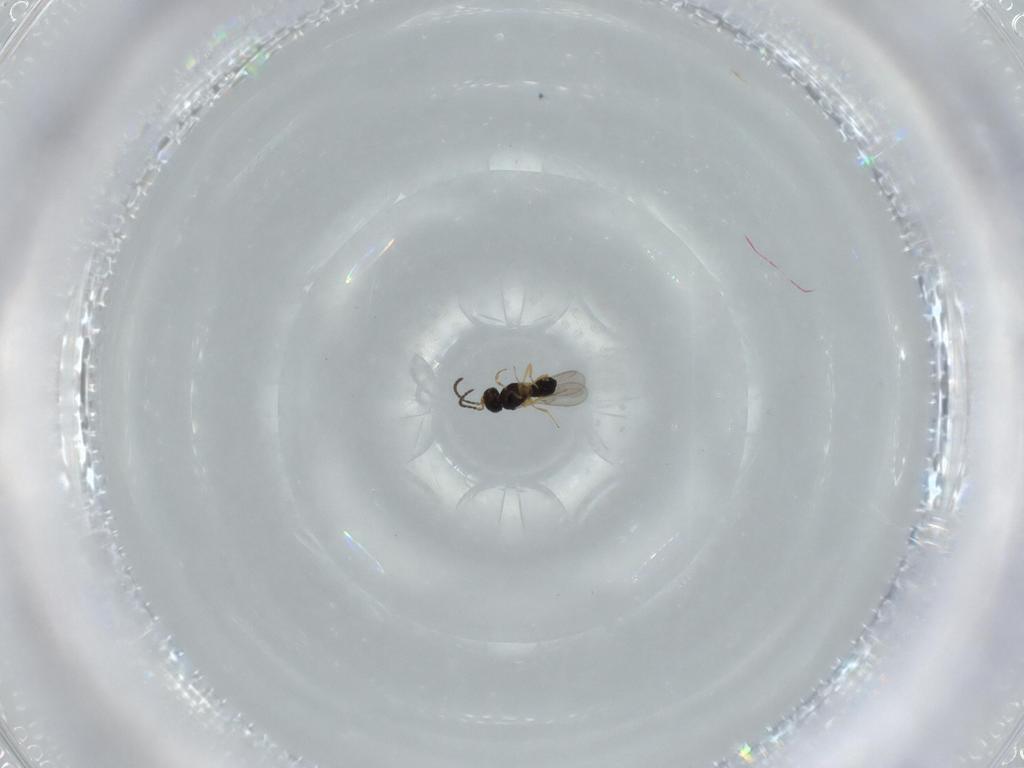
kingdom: Animalia
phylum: Arthropoda
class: Insecta
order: Hymenoptera
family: Scelionidae
